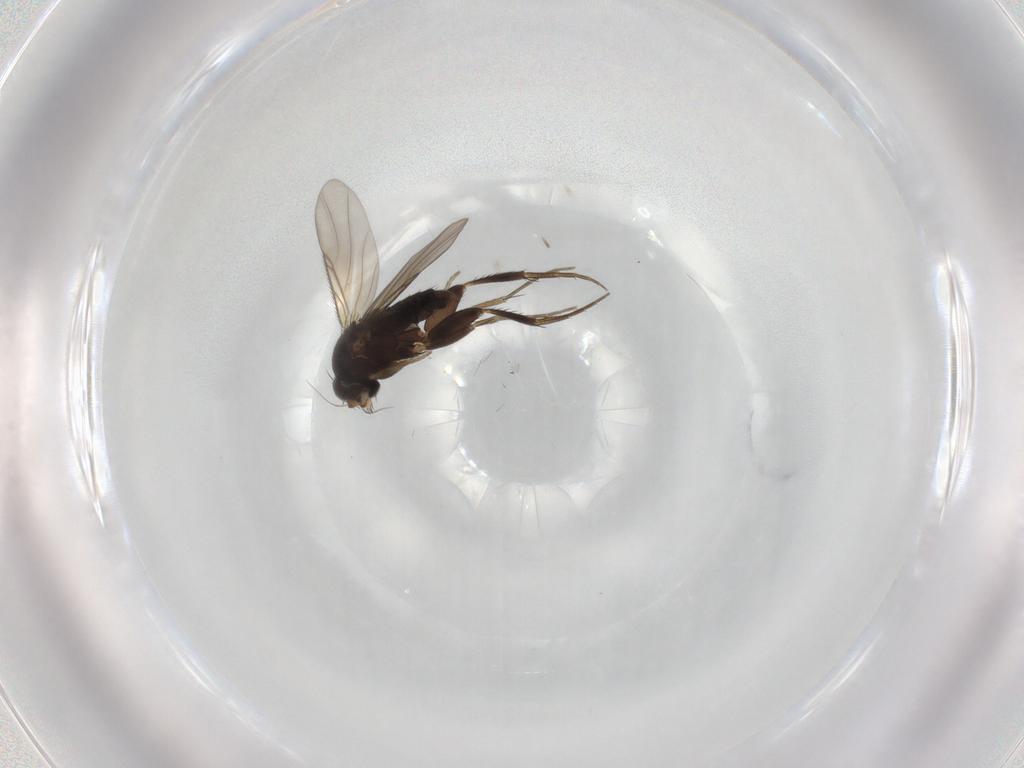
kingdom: Animalia
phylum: Arthropoda
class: Insecta
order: Diptera
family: Phoridae
